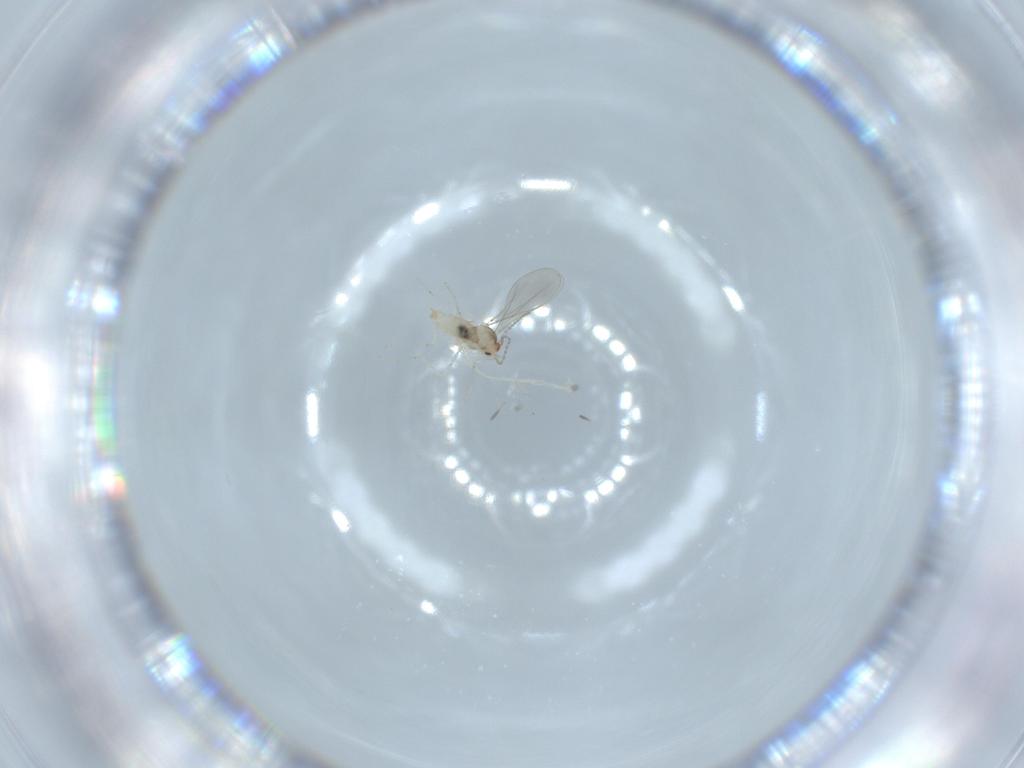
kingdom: Animalia
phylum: Arthropoda
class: Insecta
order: Diptera
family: Cecidomyiidae
